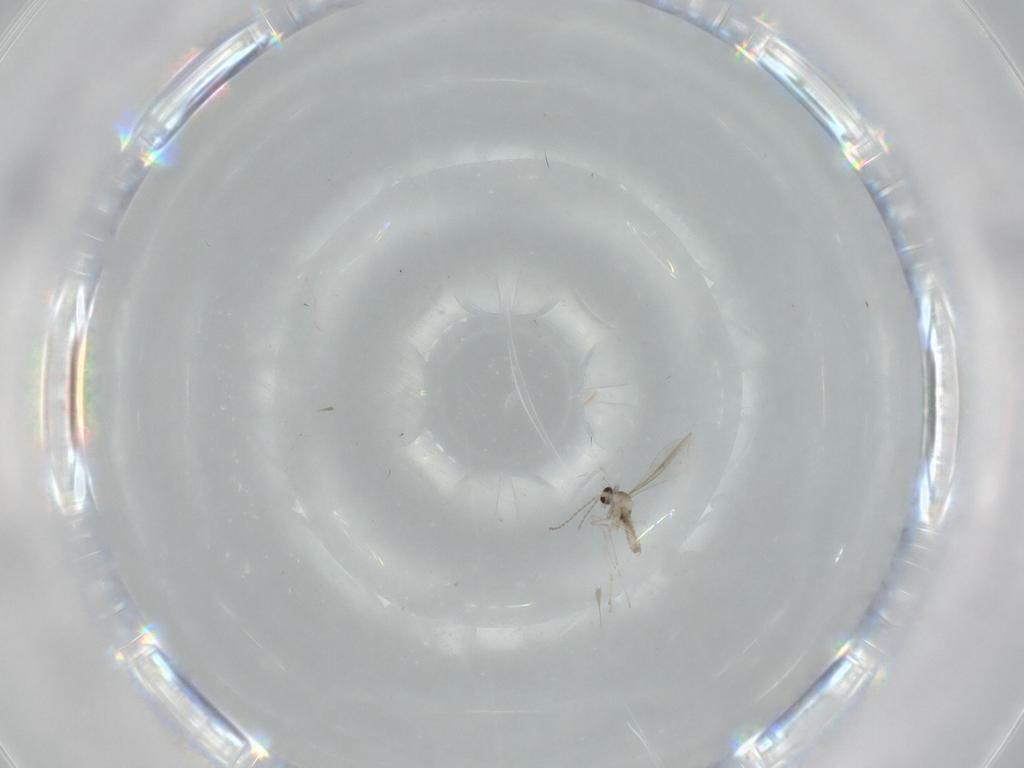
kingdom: Animalia
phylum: Arthropoda
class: Insecta
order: Diptera
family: Cecidomyiidae
